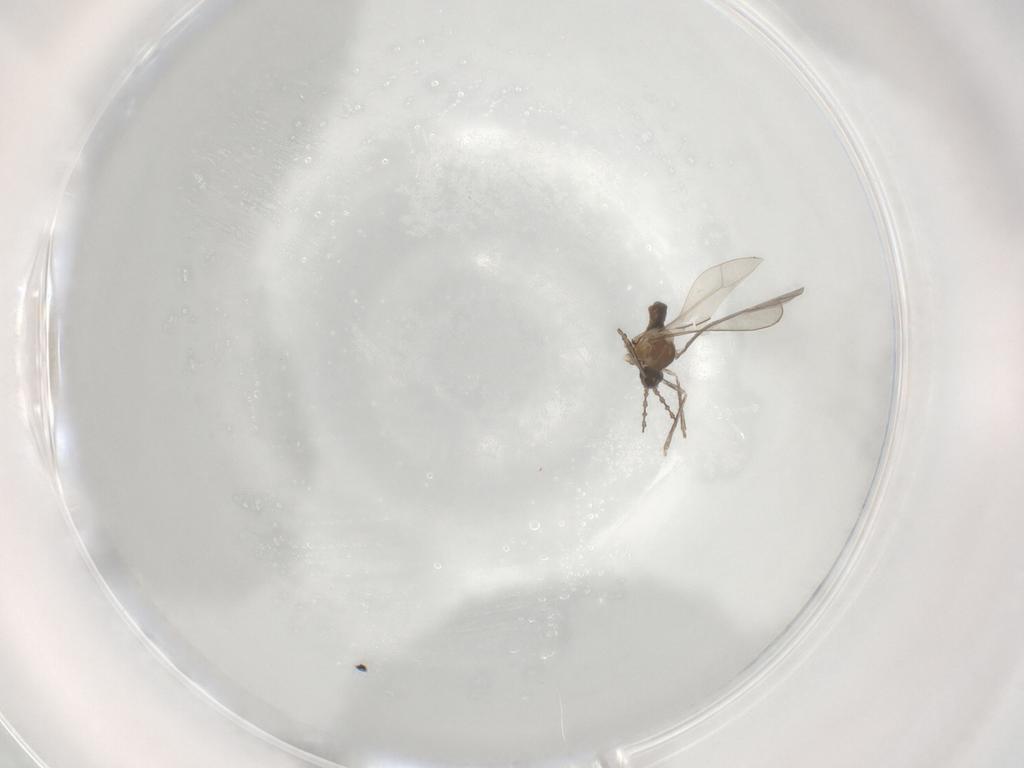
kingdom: Animalia
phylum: Arthropoda
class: Insecta
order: Diptera
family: Cecidomyiidae
